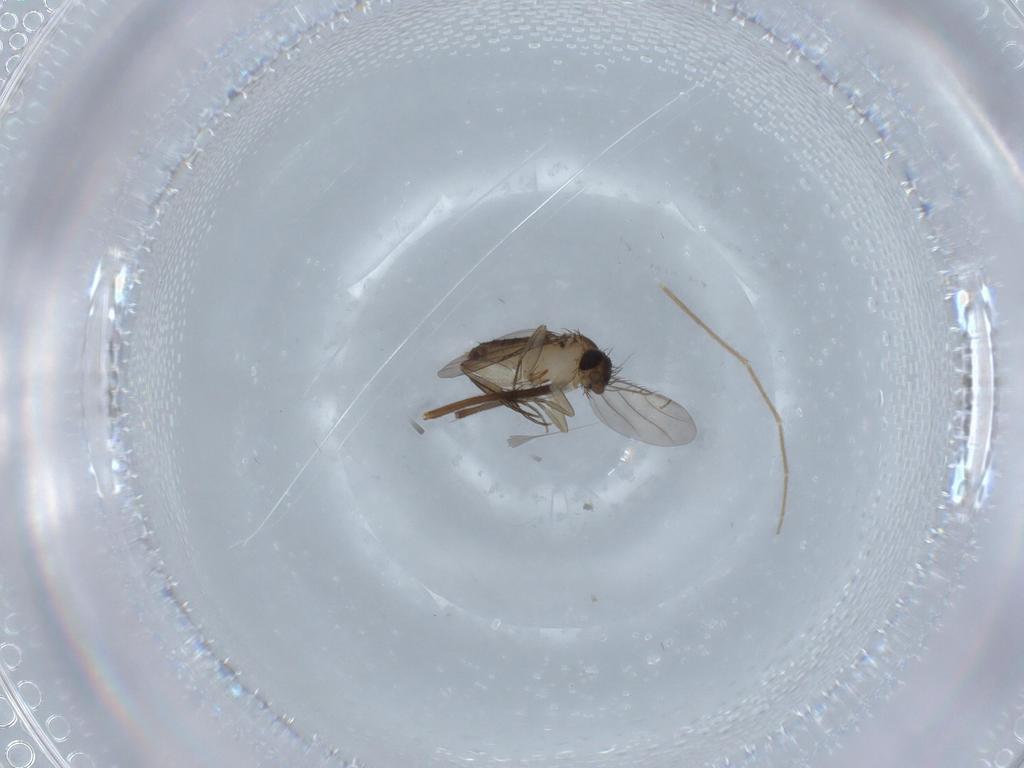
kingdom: Animalia
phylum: Arthropoda
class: Insecta
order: Diptera
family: Phoridae
